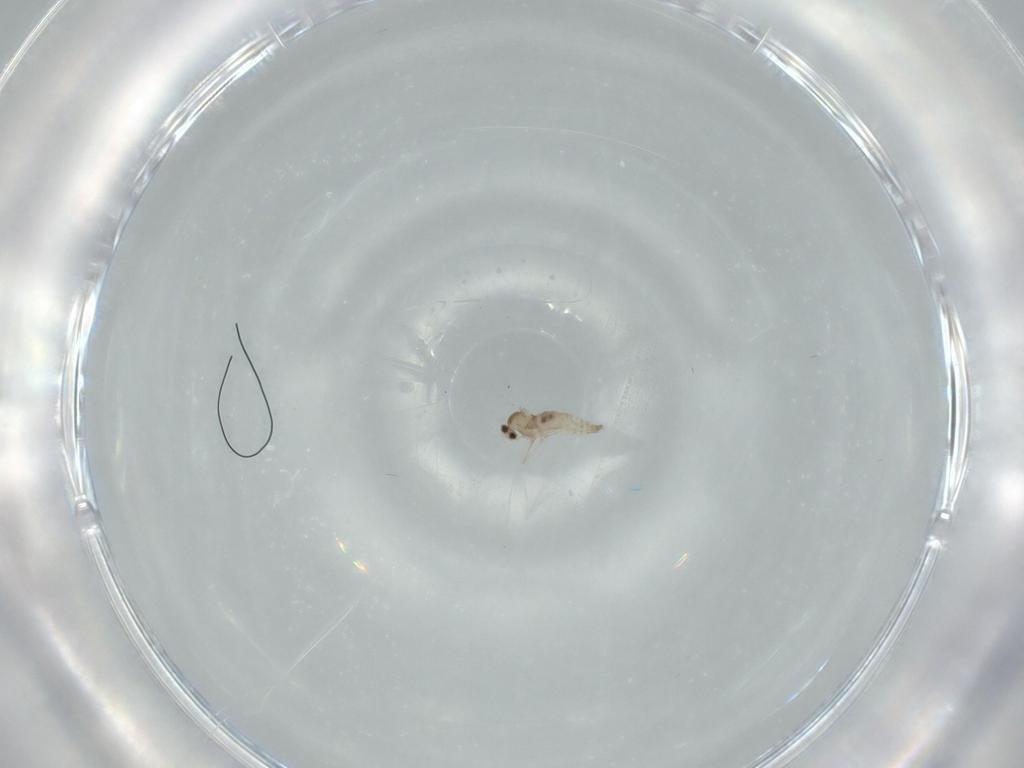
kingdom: Animalia
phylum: Arthropoda
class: Insecta
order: Diptera
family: Cecidomyiidae
